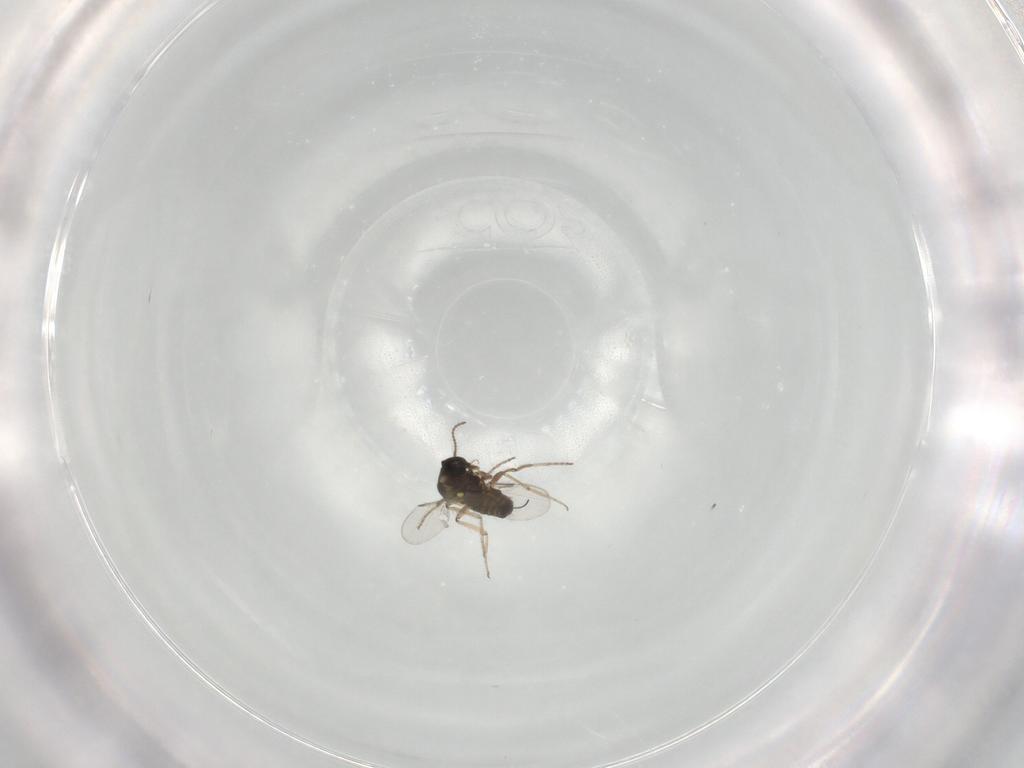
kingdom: Animalia
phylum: Arthropoda
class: Insecta
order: Diptera
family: Ceratopogonidae
